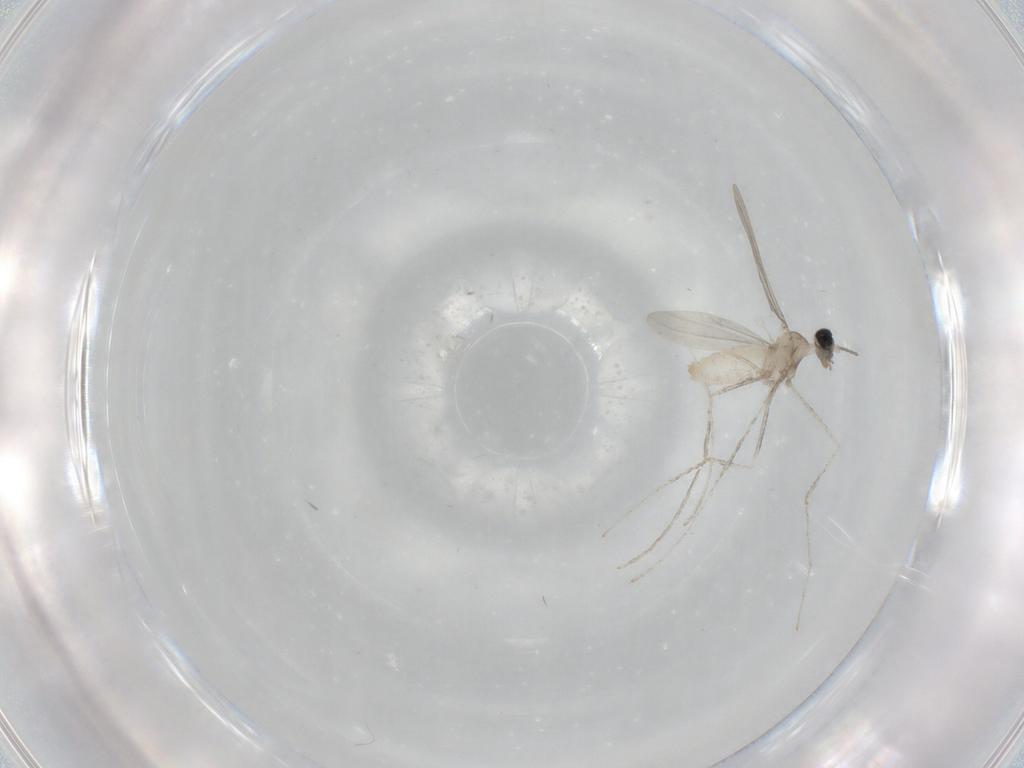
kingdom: Animalia
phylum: Arthropoda
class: Insecta
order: Diptera
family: Cecidomyiidae
